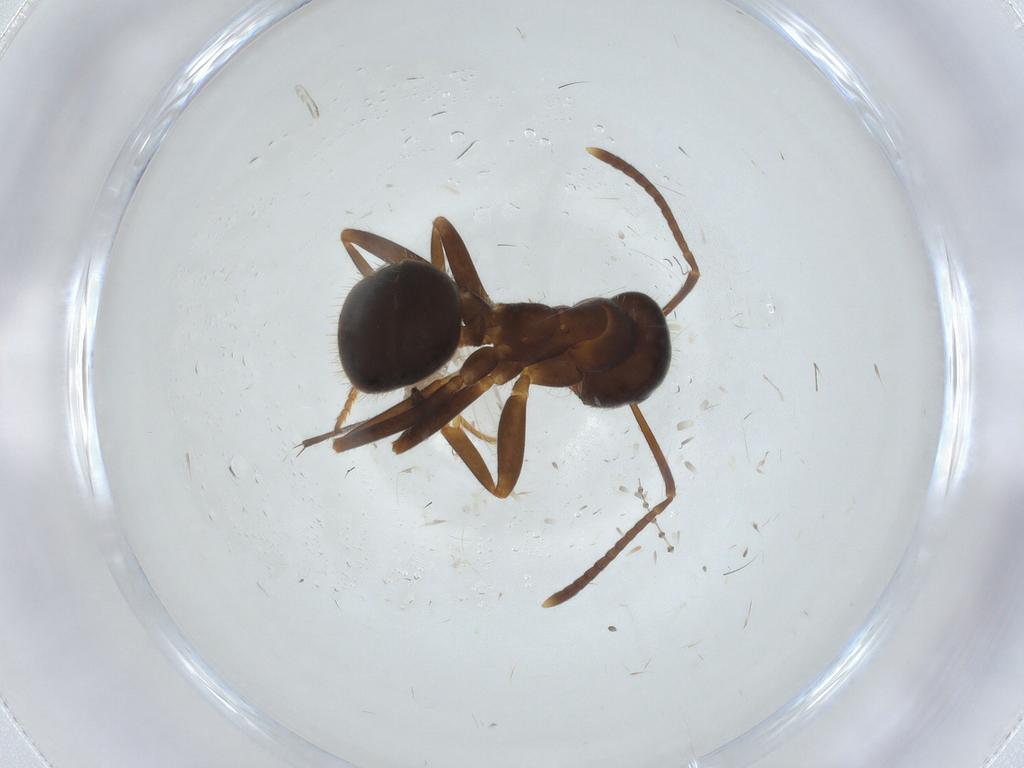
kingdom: Animalia
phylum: Arthropoda
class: Insecta
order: Hymenoptera
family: Formicidae
